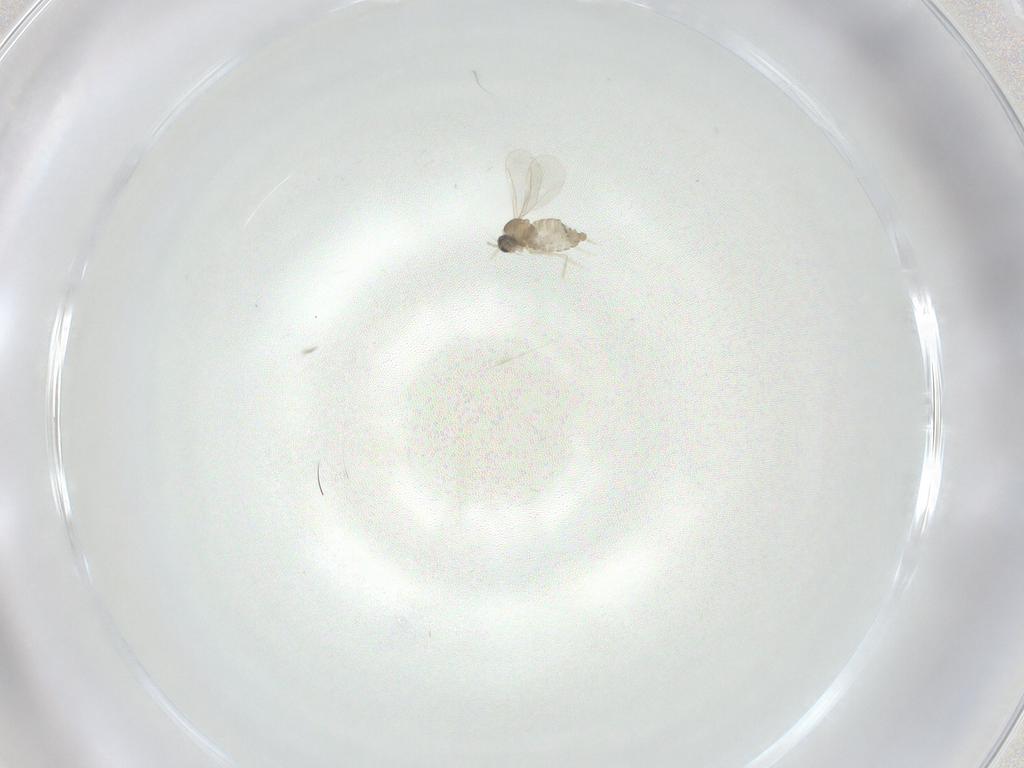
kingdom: Animalia
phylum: Arthropoda
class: Insecta
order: Diptera
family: Cecidomyiidae
